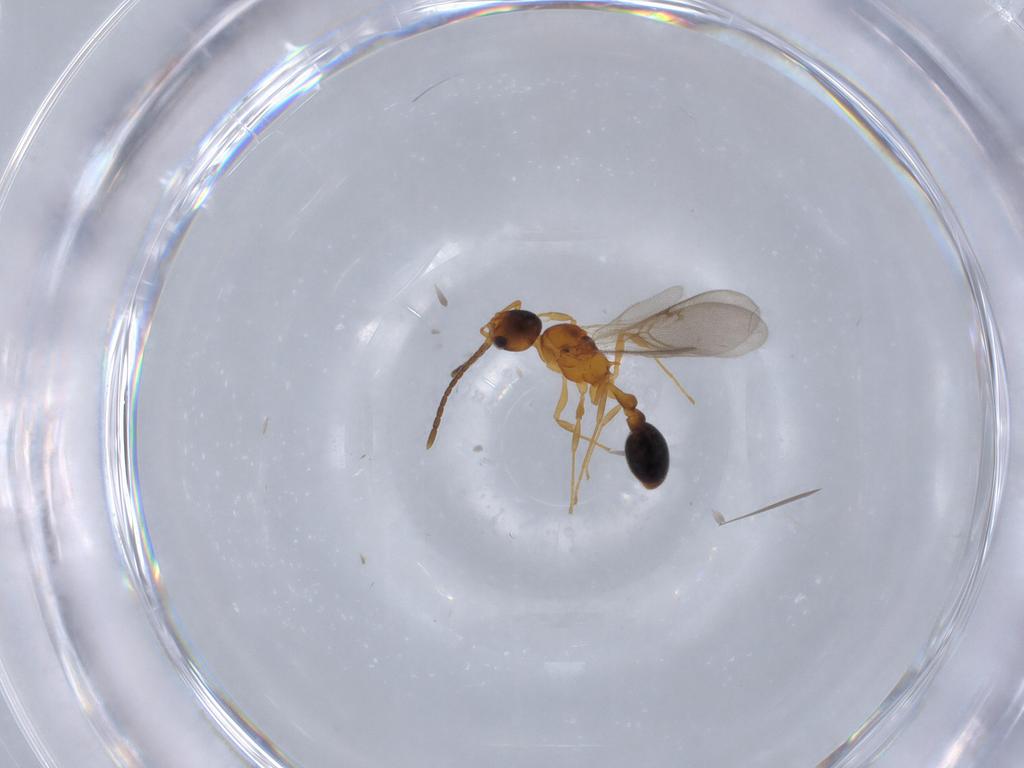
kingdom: Animalia
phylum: Arthropoda
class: Insecta
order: Hymenoptera
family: Formicidae
